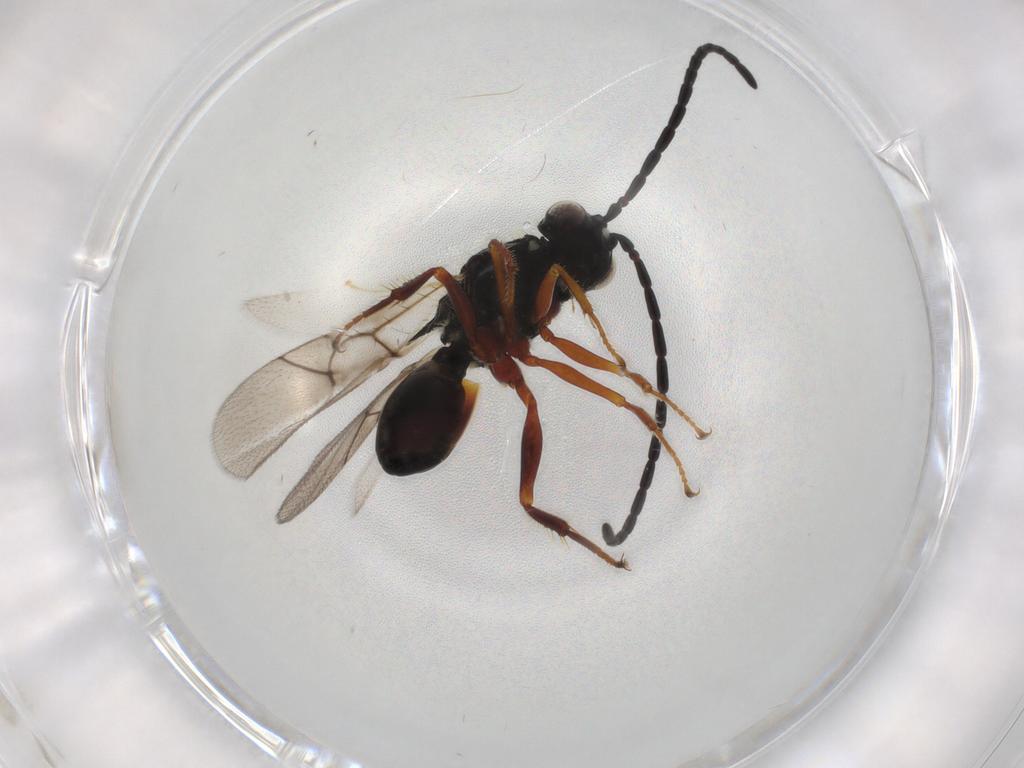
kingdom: Animalia
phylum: Arthropoda
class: Insecta
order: Hymenoptera
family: Figitidae
